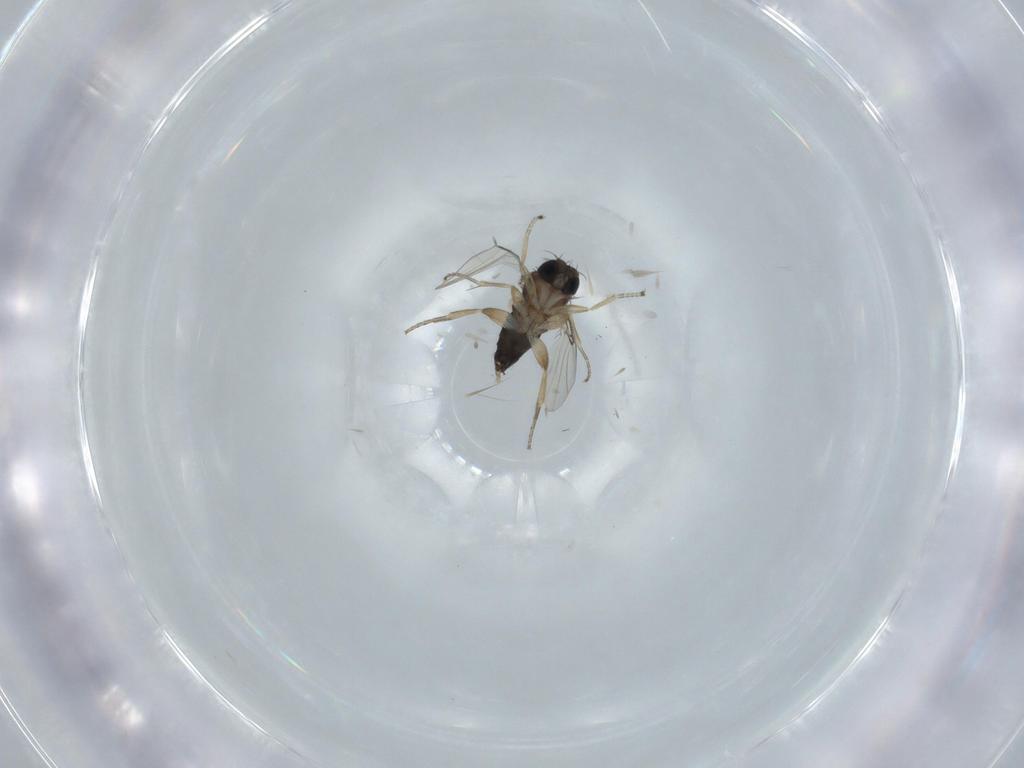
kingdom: Animalia
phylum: Arthropoda
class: Insecta
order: Diptera
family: Phoridae
